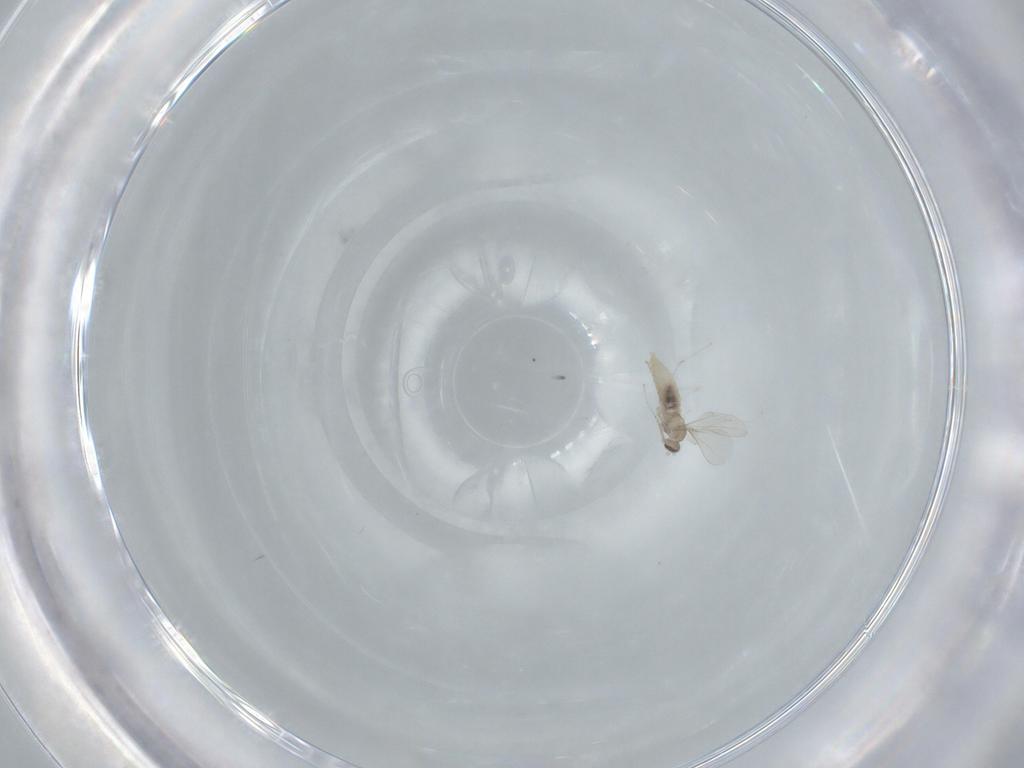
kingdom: Animalia
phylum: Arthropoda
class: Insecta
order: Diptera
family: Cecidomyiidae
